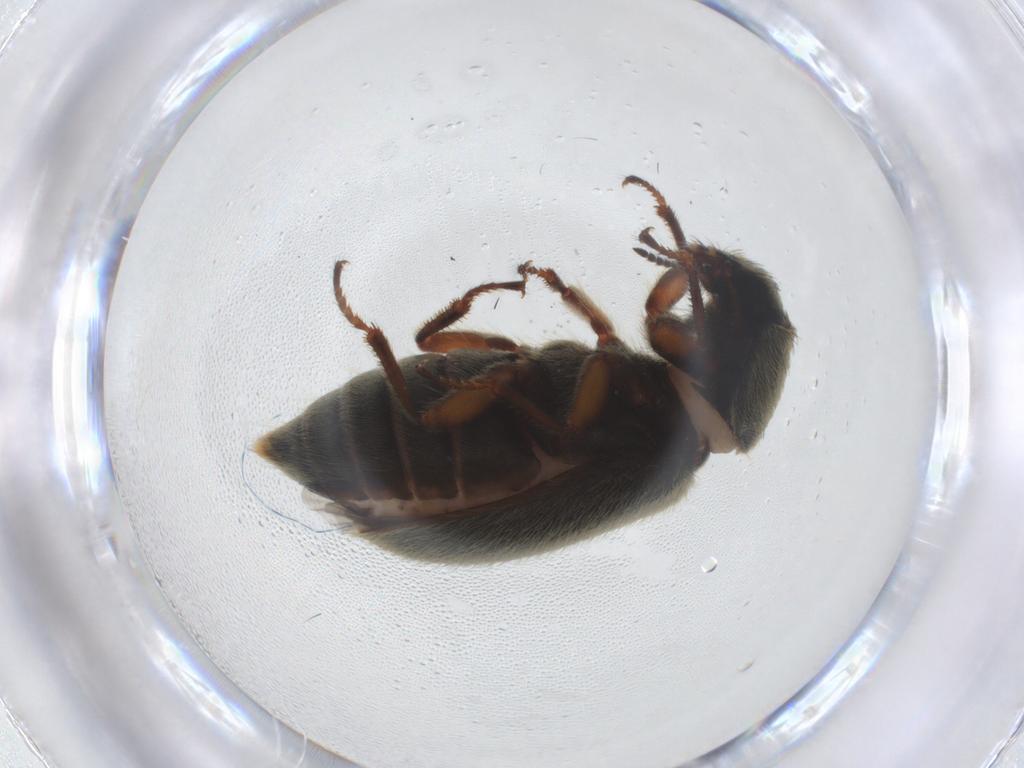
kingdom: Animalia
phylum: Arthropoda
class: Insecta
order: Coleoptera
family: Melyridae
